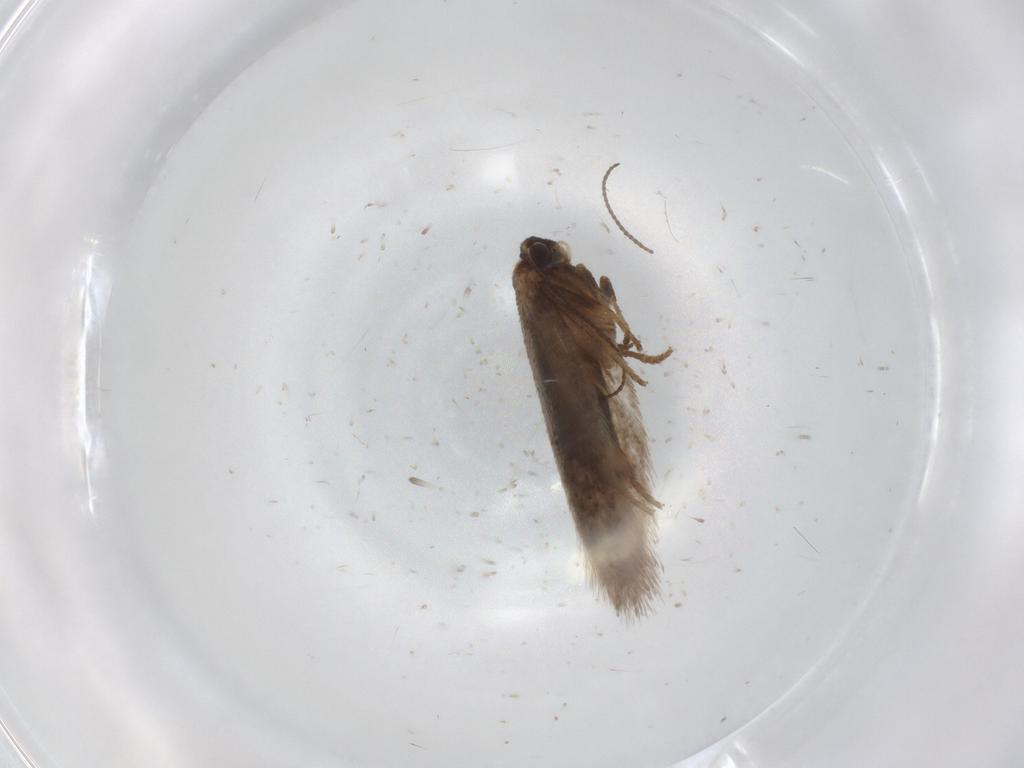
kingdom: Animalia
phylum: Arthropoda
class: Insecta
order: Lepidoptera
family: Nepticulidae
